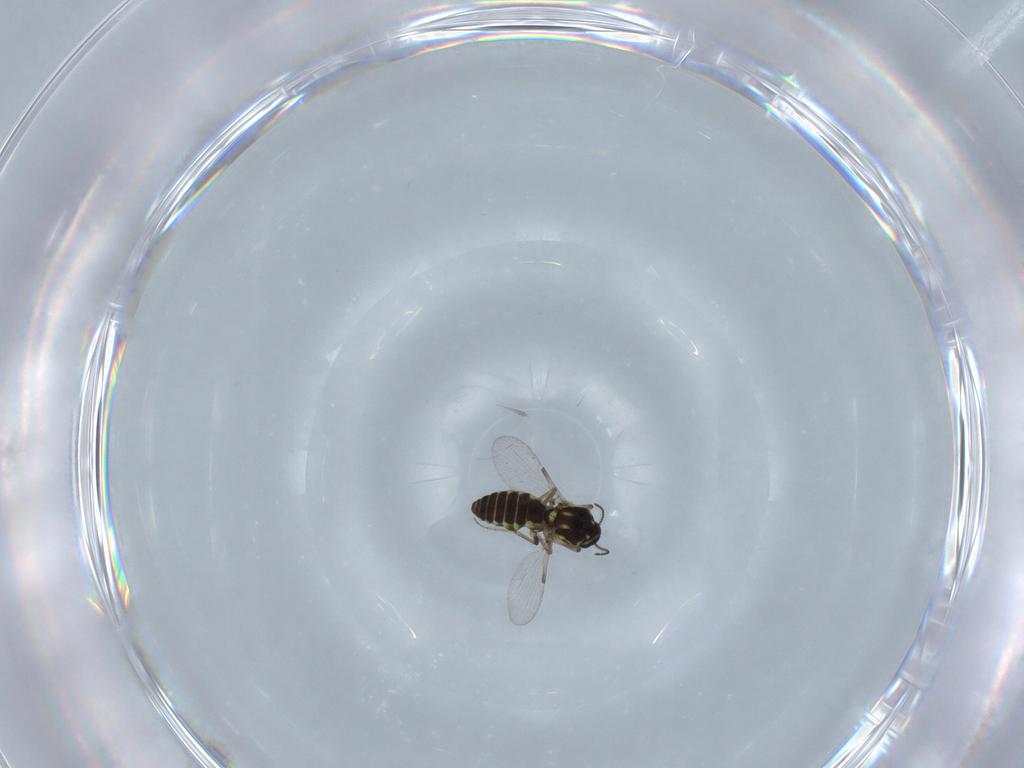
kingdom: Animalia
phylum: Arthropoda
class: Insecta
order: Diptera
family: Ceratopogonidae
